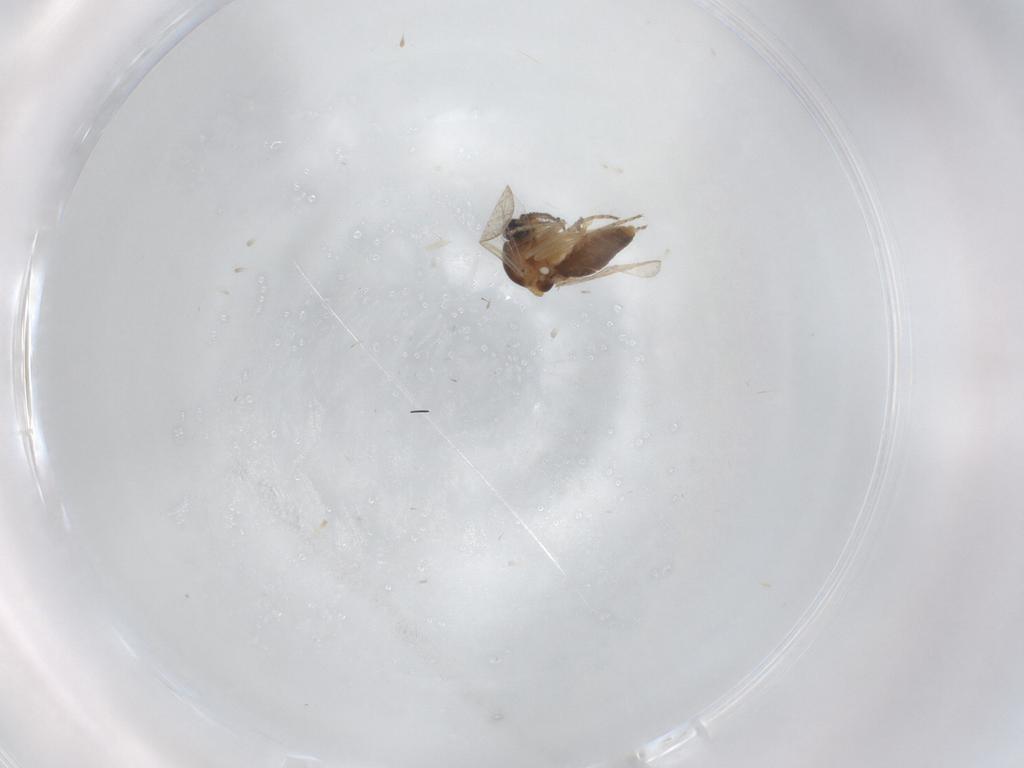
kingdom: Animalia
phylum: Arthropoda
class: Insecta
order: Diptera
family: Chloropidae
